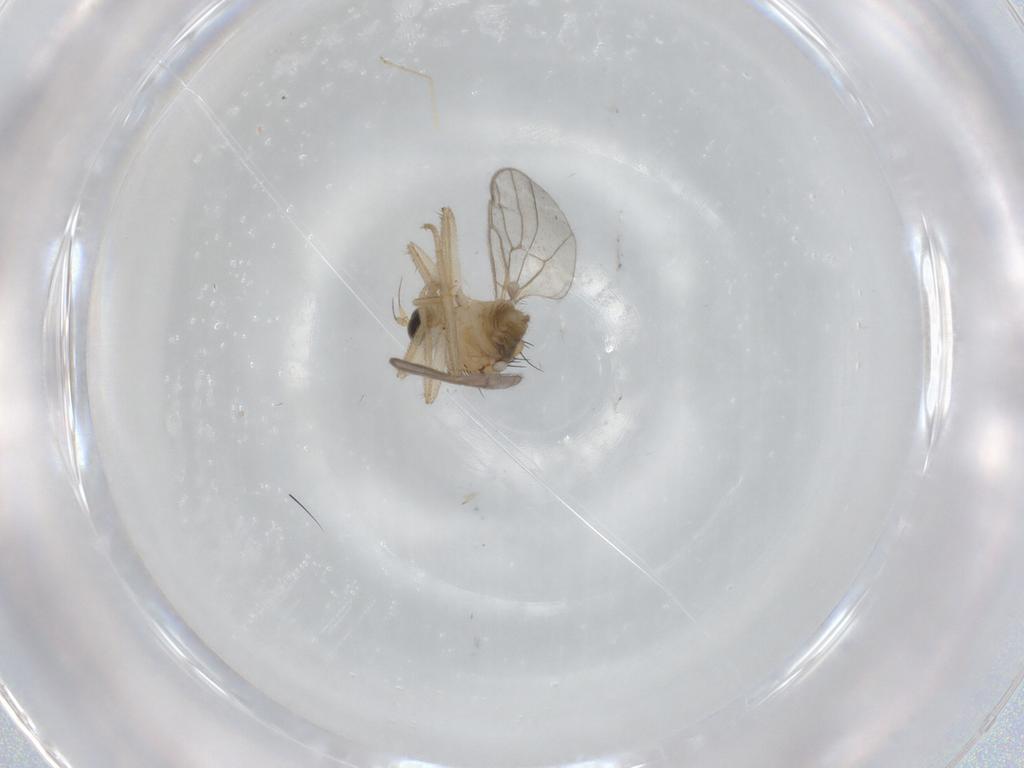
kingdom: Animalia
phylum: Arthropoda
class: Insecta
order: Diptera
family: Hybotidae
